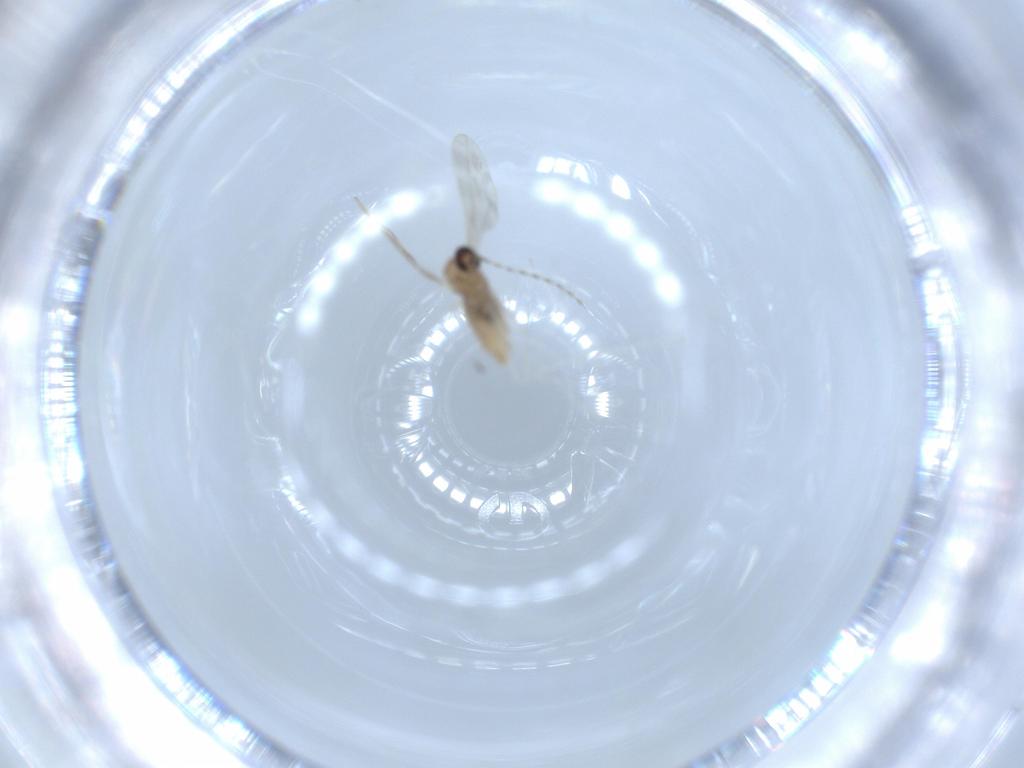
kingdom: Animalia
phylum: Arthropoda
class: Insecta
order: Diptera
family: Cecidomyiidae
